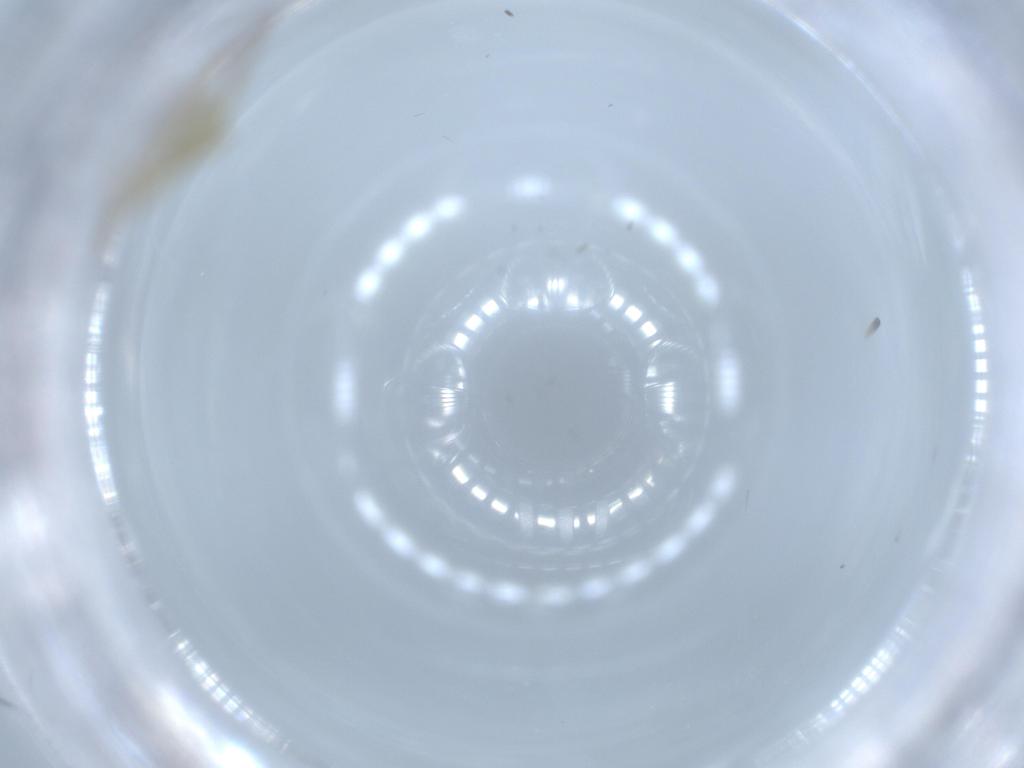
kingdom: Animalia
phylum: Arthropoda
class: Insecta
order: Diptera
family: Chironomidae
